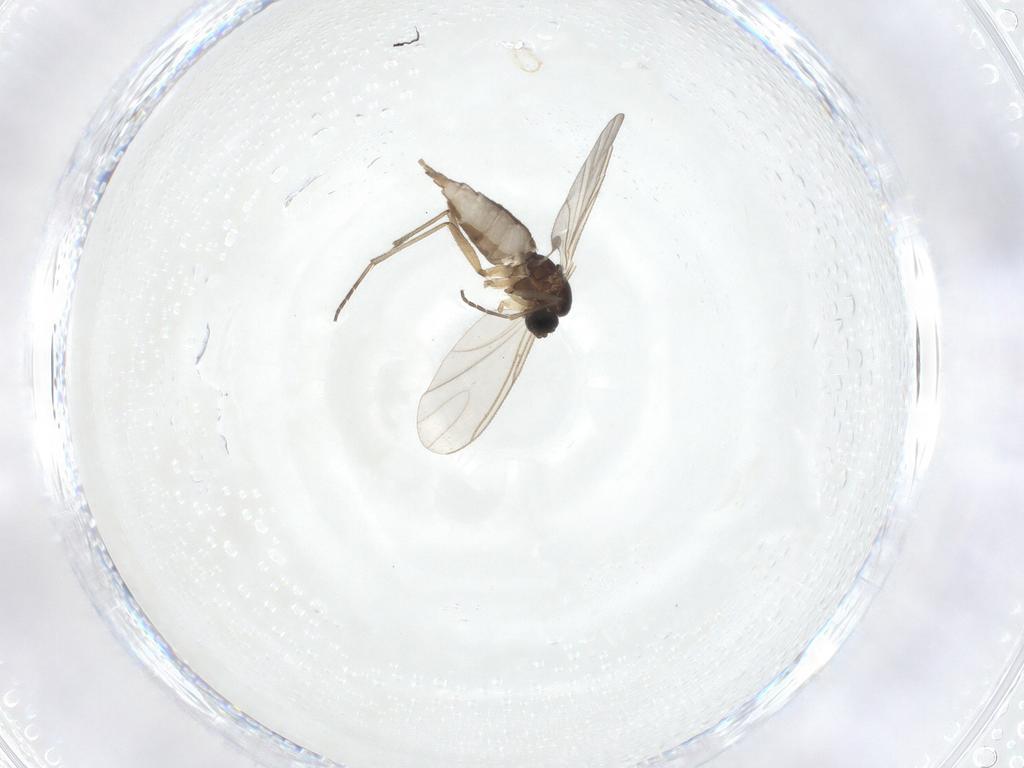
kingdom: Animalia
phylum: Arthropoda
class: Insecta
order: Diptera
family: Sciaridae
